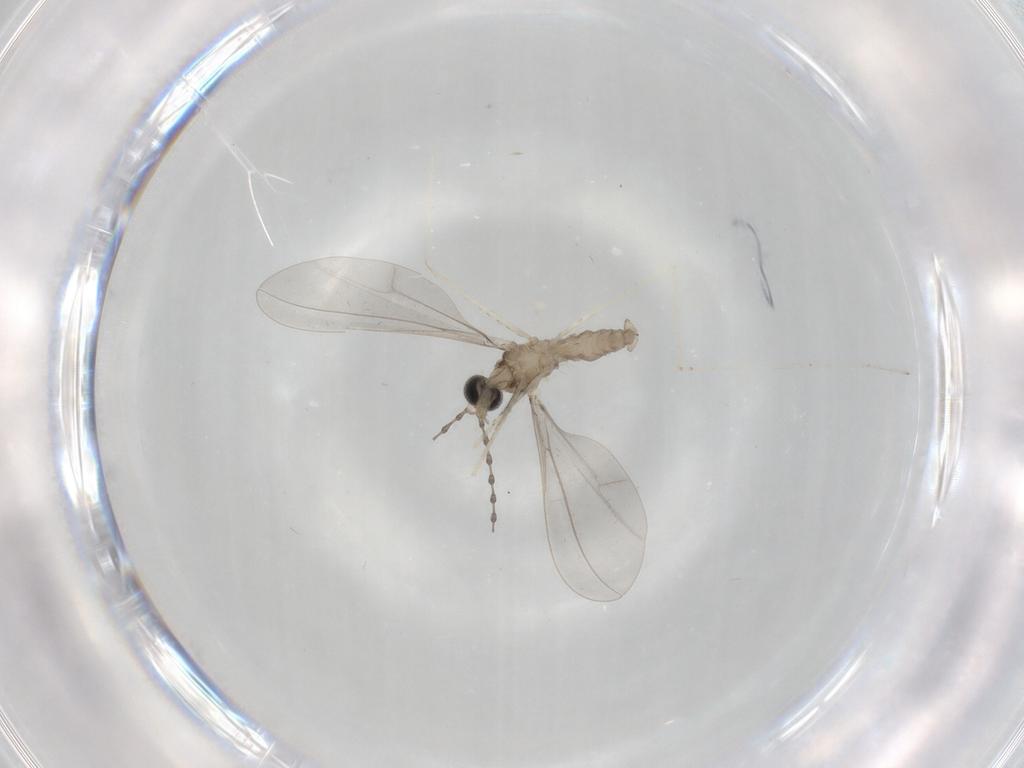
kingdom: Animalia
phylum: Arthropoda
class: Insecta
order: Diptera
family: Cecidomyiidae
